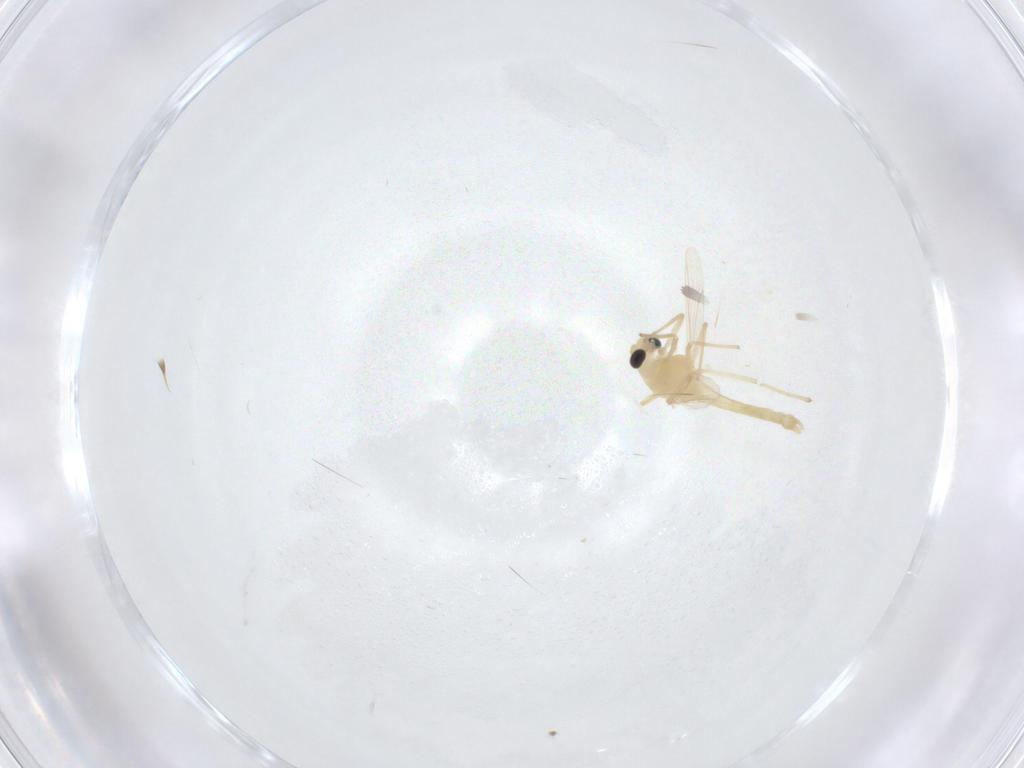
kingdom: Animalia
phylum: Arthropoda
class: Insecta
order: Diptera
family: Chironomidae
